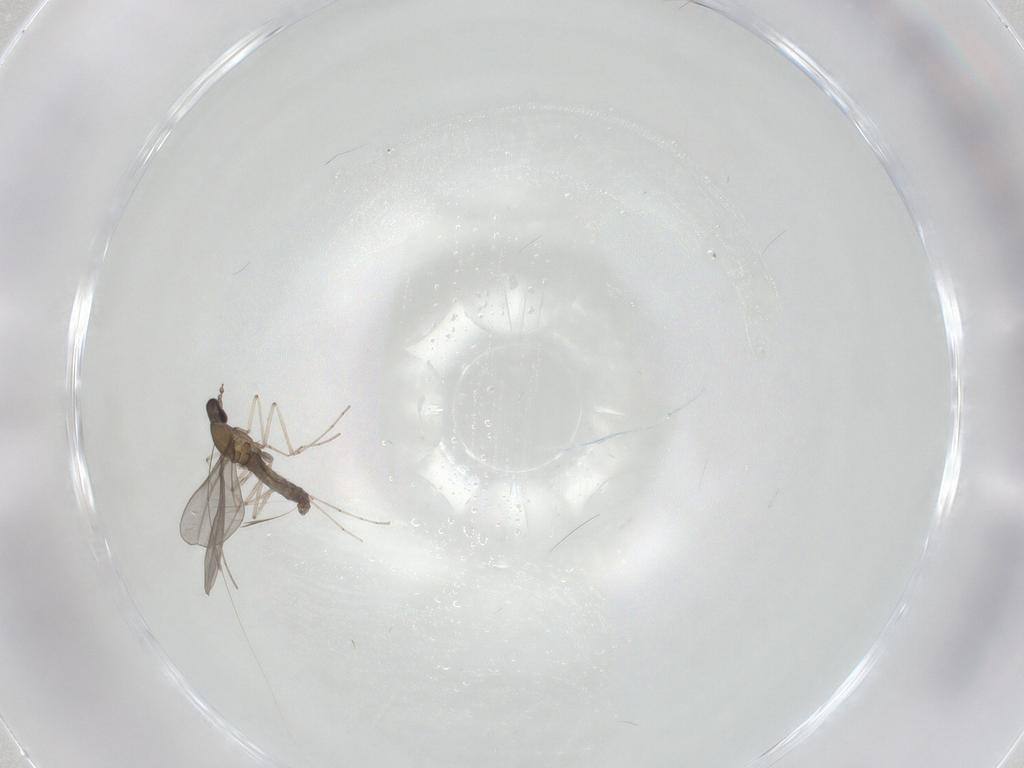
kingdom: Animalia
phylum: Arthropoda
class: Insecta
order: Diptera
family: Cecidomyiidae
